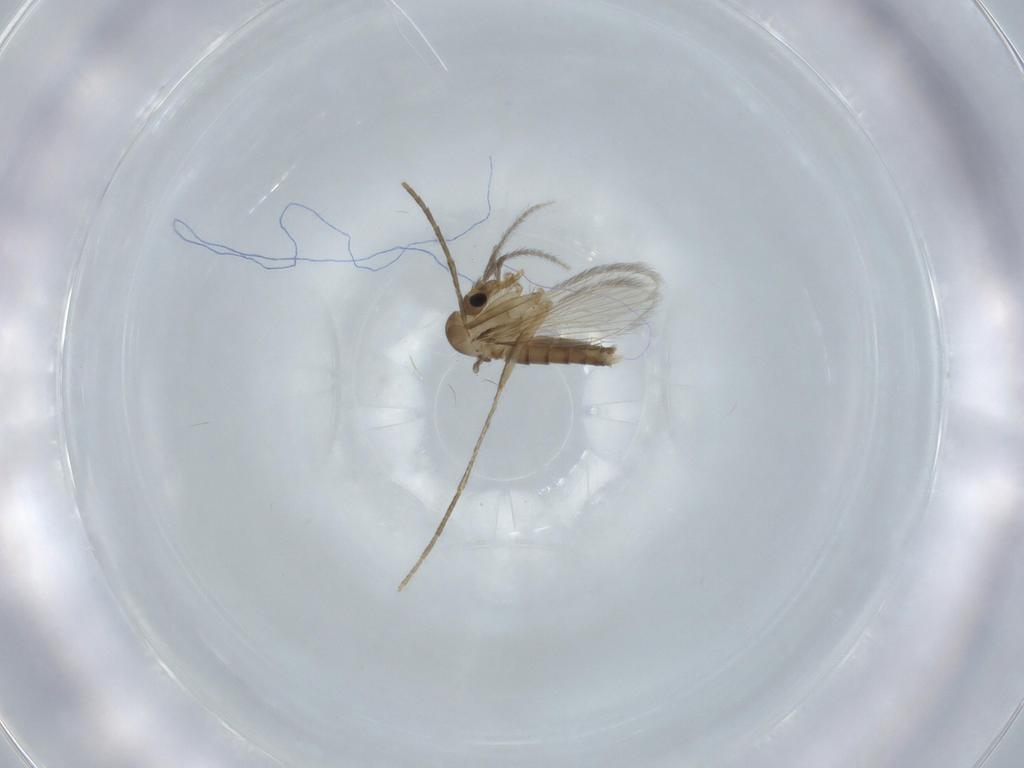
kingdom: Animalia
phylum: Arthropoda
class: Insecta
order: Diptera
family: Psychodidae
